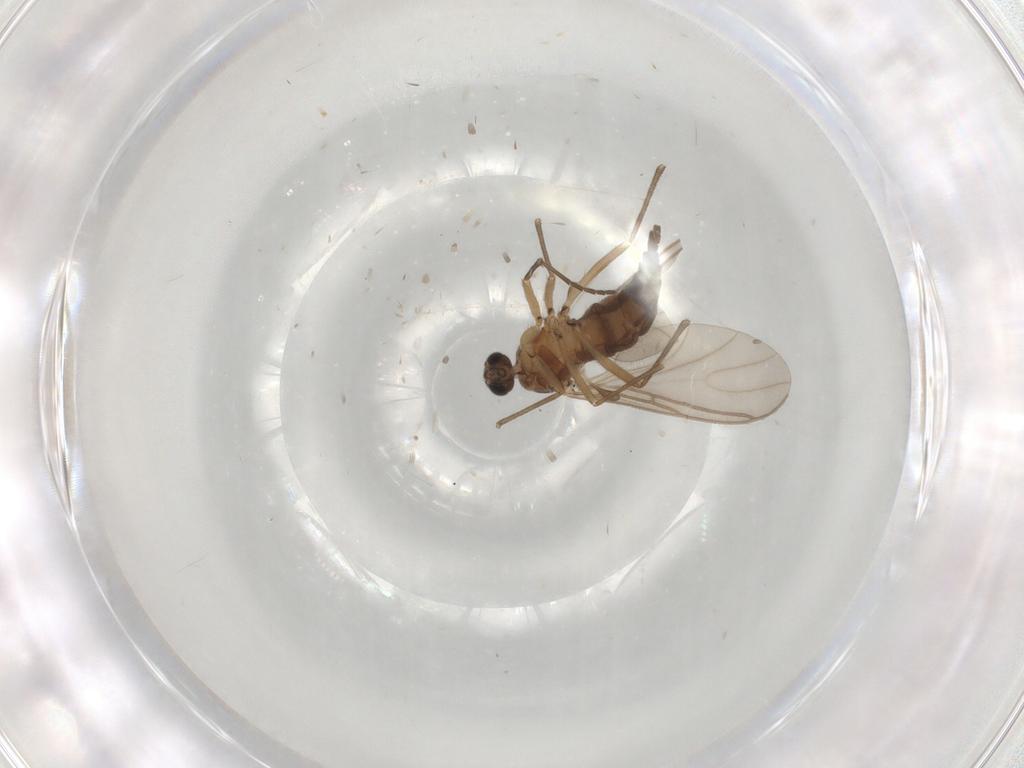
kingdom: Animalia
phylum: Arthropoda
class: Insecta
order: Diptera
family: Sciaridae
